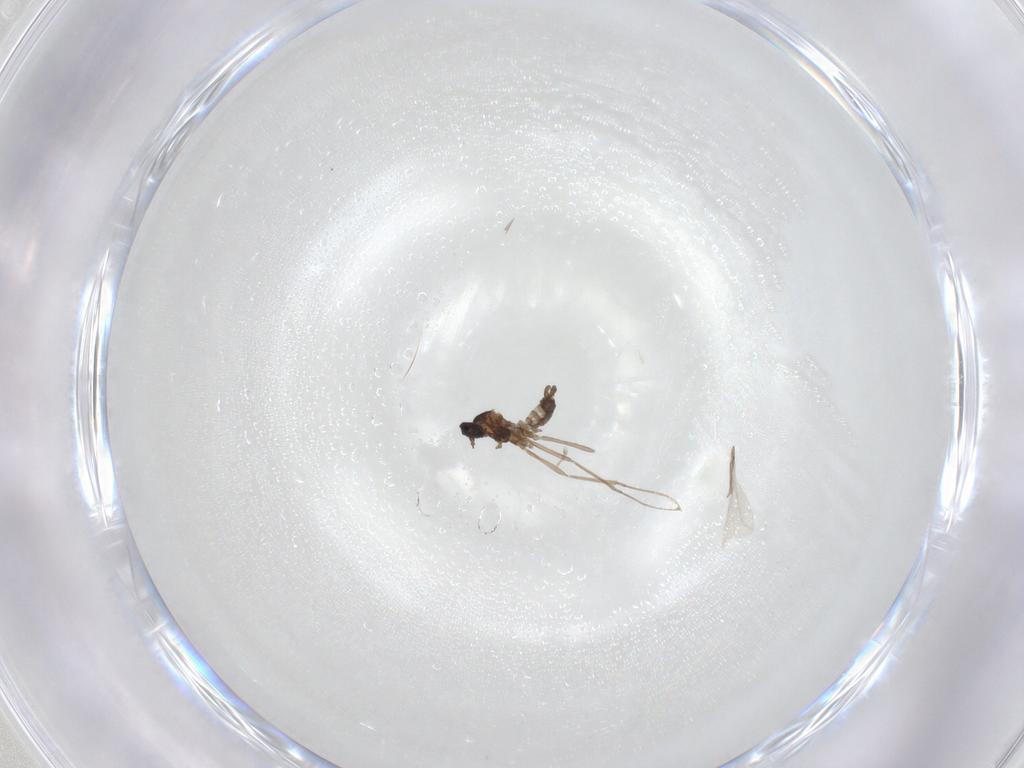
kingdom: Animalia
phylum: Arthropoda
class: Insecta
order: Diptera
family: Cecidomyiidae
